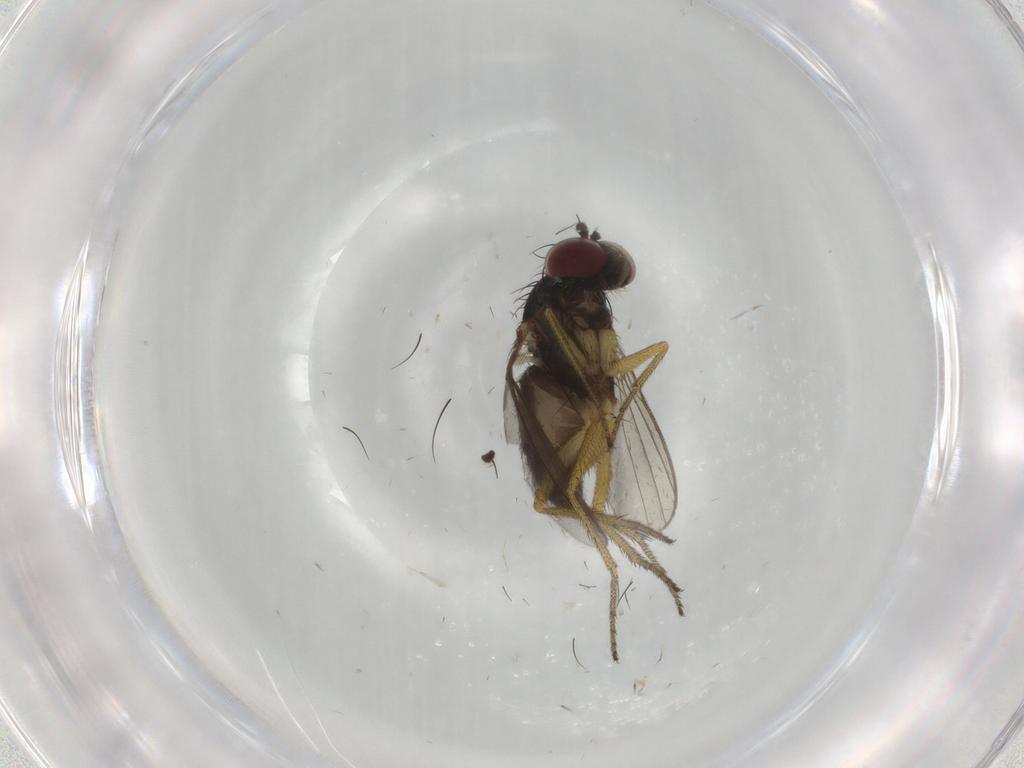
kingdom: Animalia
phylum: Arthropoda
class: Insecta
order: Diptera
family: Dolichopodidae
